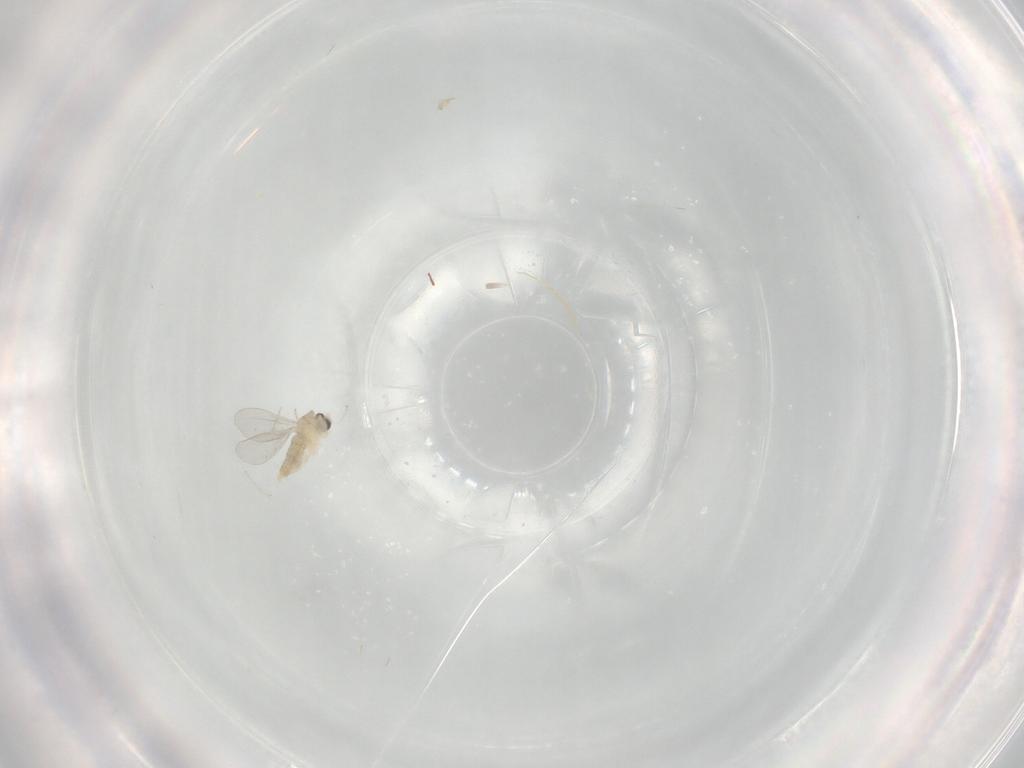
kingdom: Animalia
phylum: Arthropoda
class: Insecta
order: Diptera
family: Cecidomyiidae
